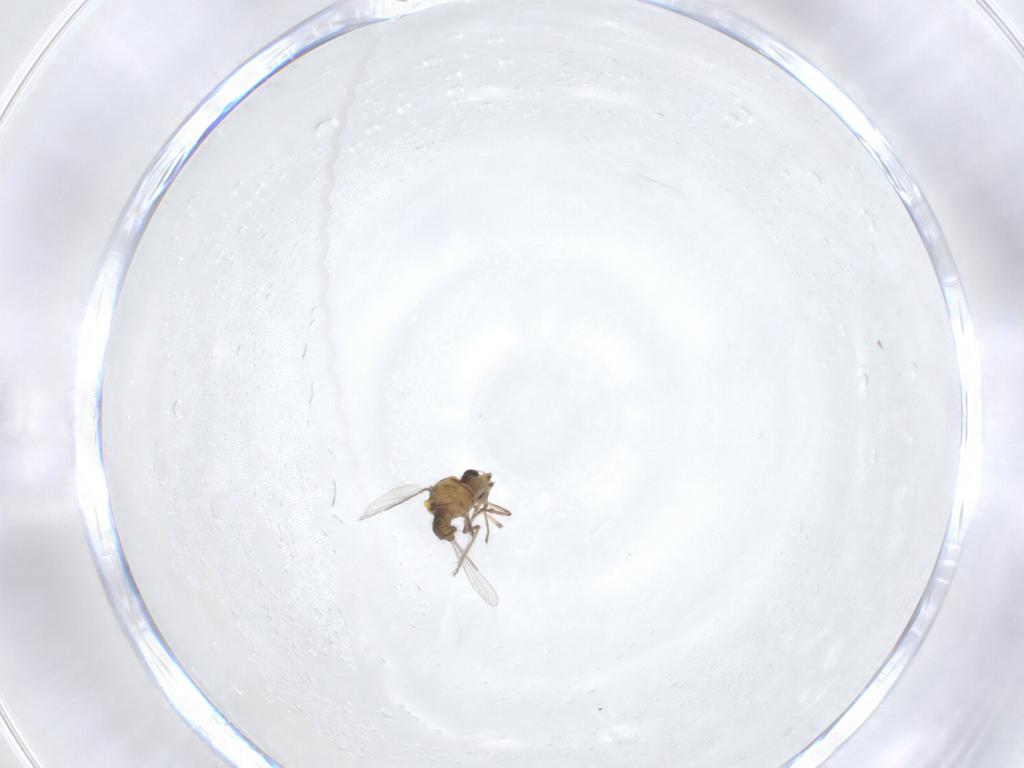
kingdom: Animalia
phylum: Arthropoda
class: Insecta
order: Diptera
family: Ceratopogonidae
